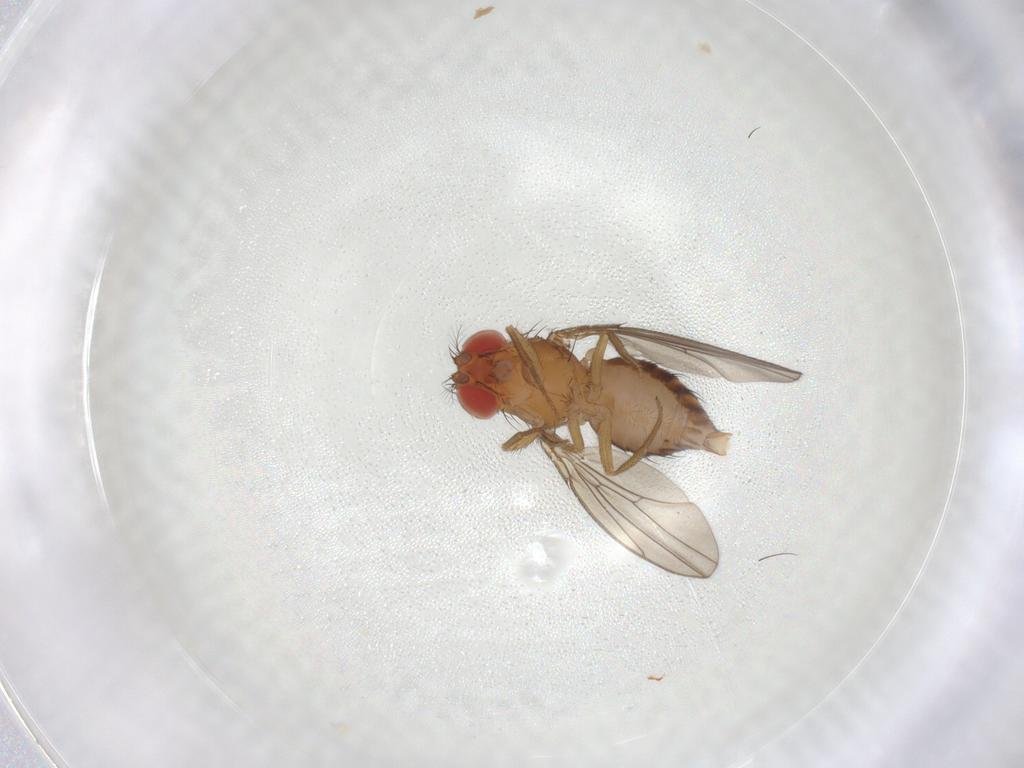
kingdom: Animalia
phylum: Arthropoda
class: Insecta
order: Diptera
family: Drosophilidae
